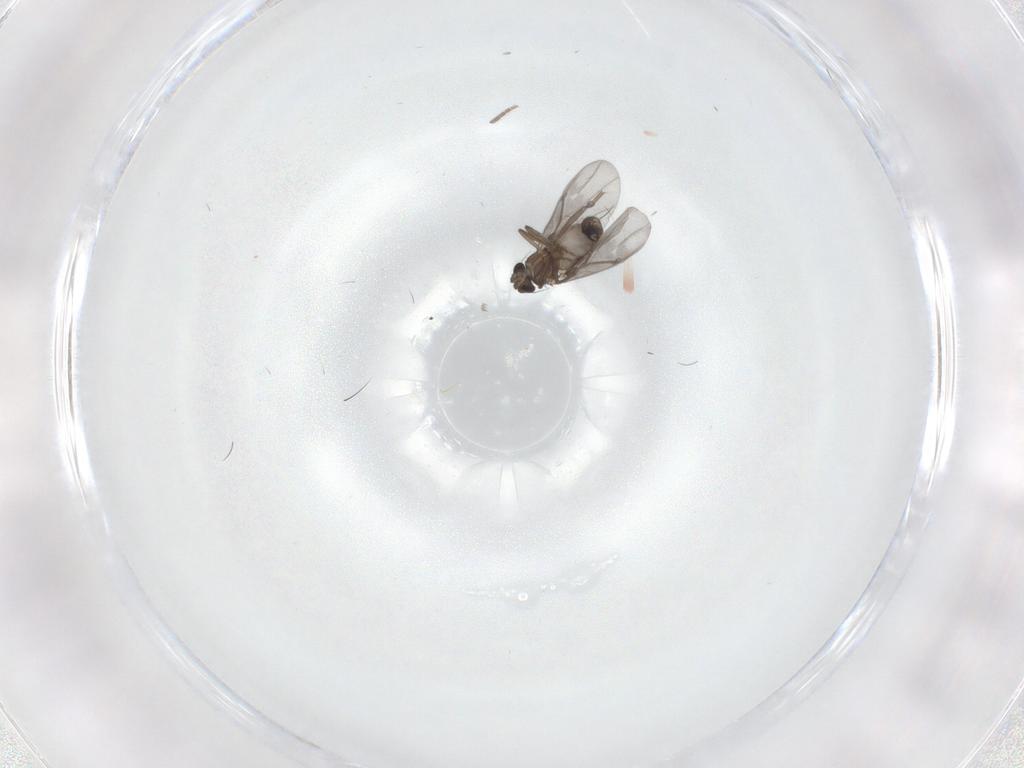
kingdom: Animalia
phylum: Arthropoda
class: Insecta
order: Diptera
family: Phoridae
